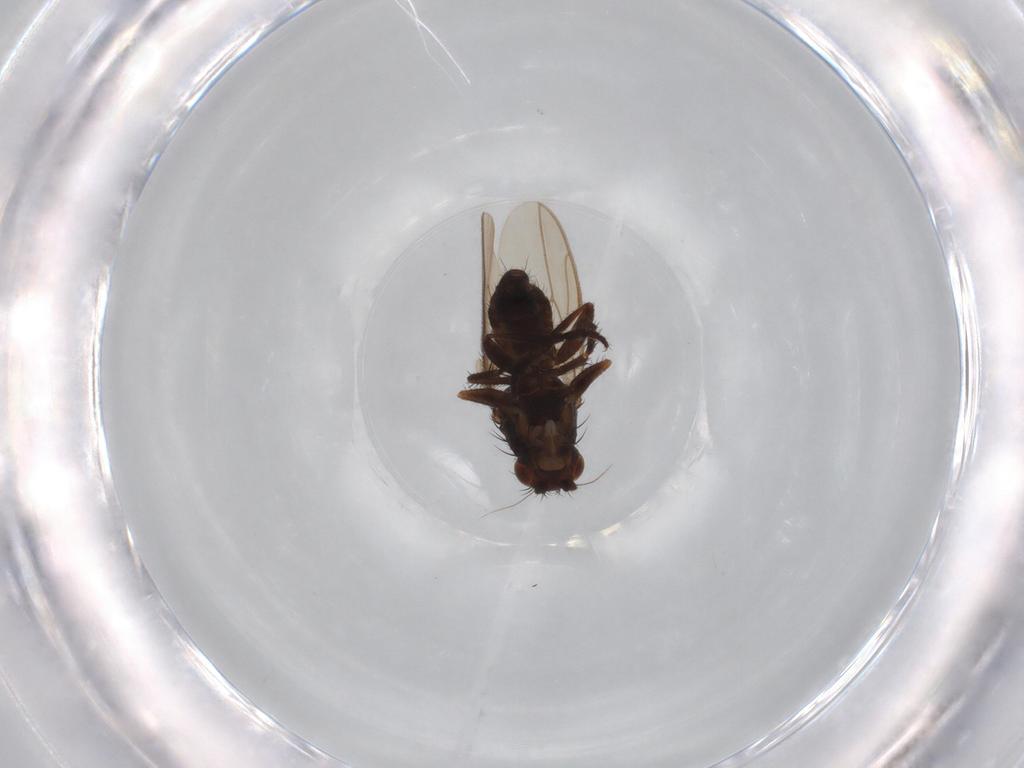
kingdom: Animalia
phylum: Arthropoda
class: Insecta
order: Diptera
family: Sphaeroceridae
